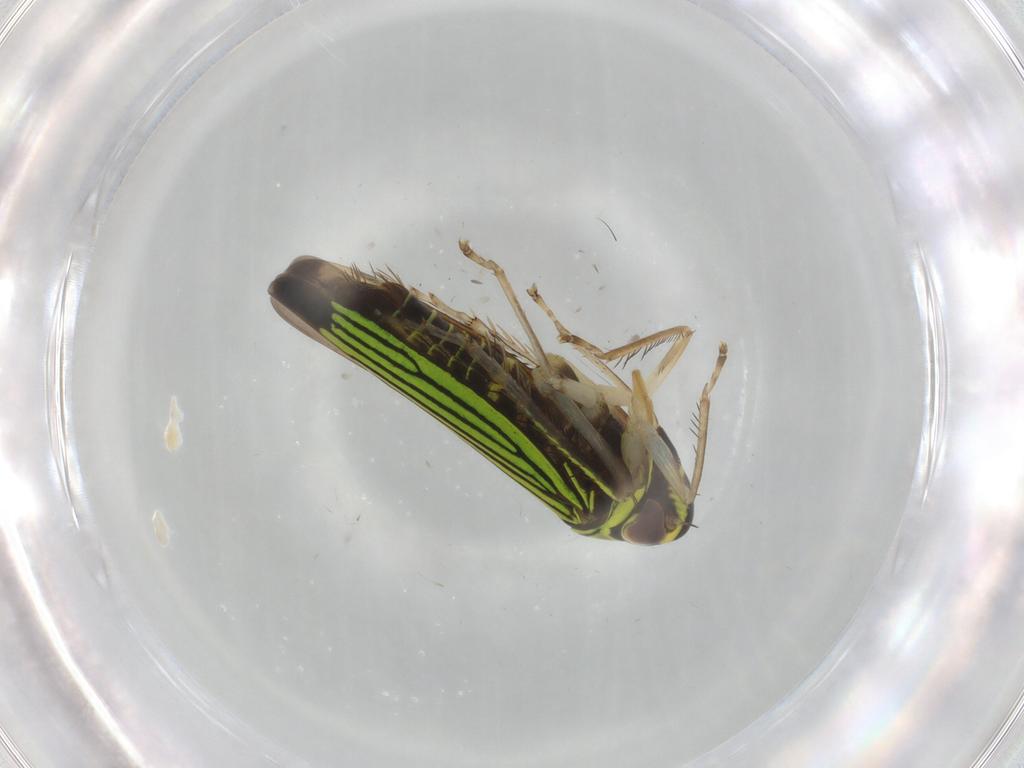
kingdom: Animalia
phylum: Arthropoda
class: Insecta
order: Hemiptera
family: Cicadellidae
